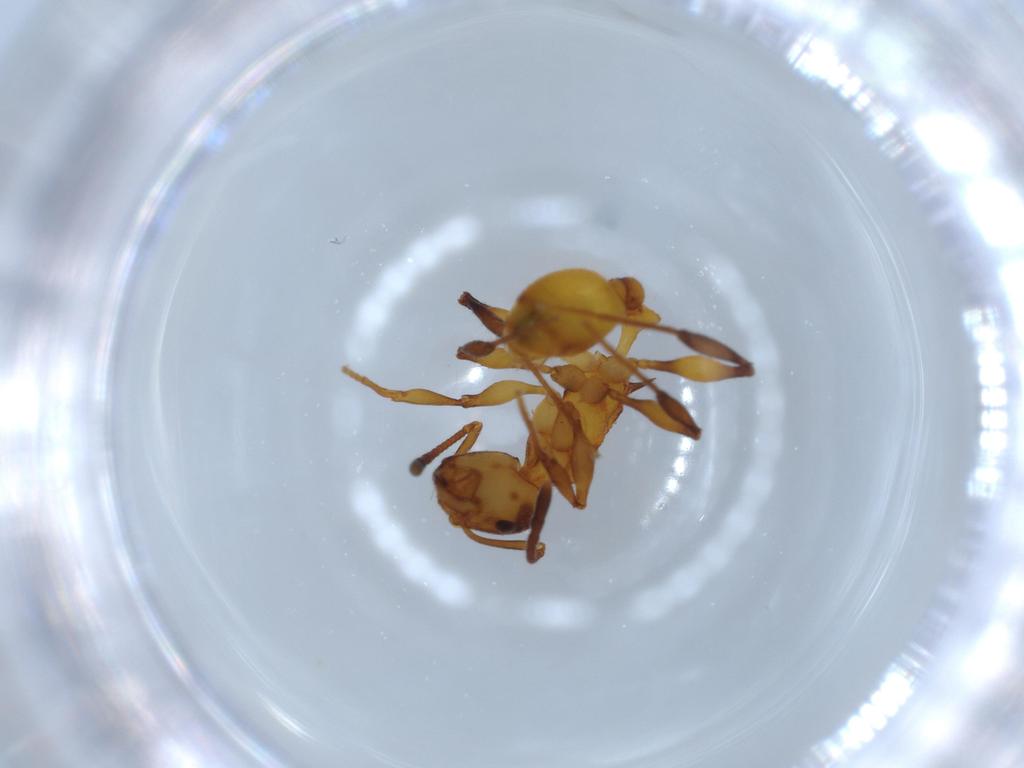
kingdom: Animalia
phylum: Arthropoda
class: Insecta
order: Hymenoptera
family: Formicidae
